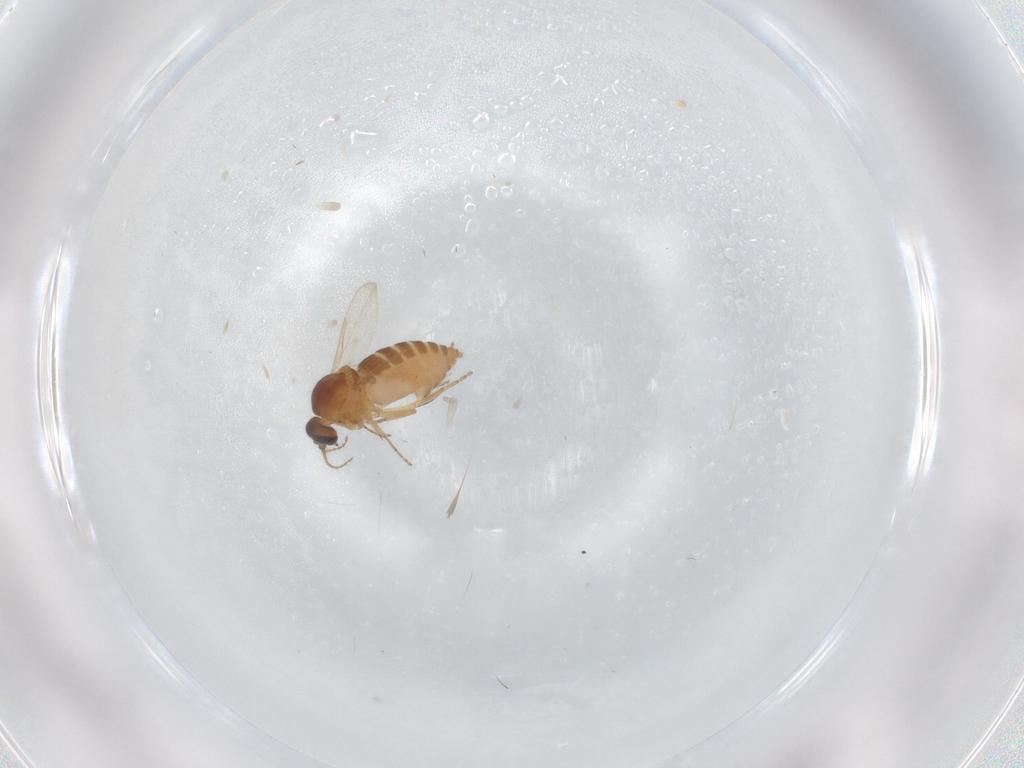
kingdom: Animalia
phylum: Arthropoda
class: Insecta
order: Diptera
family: Ceratopogonidae
